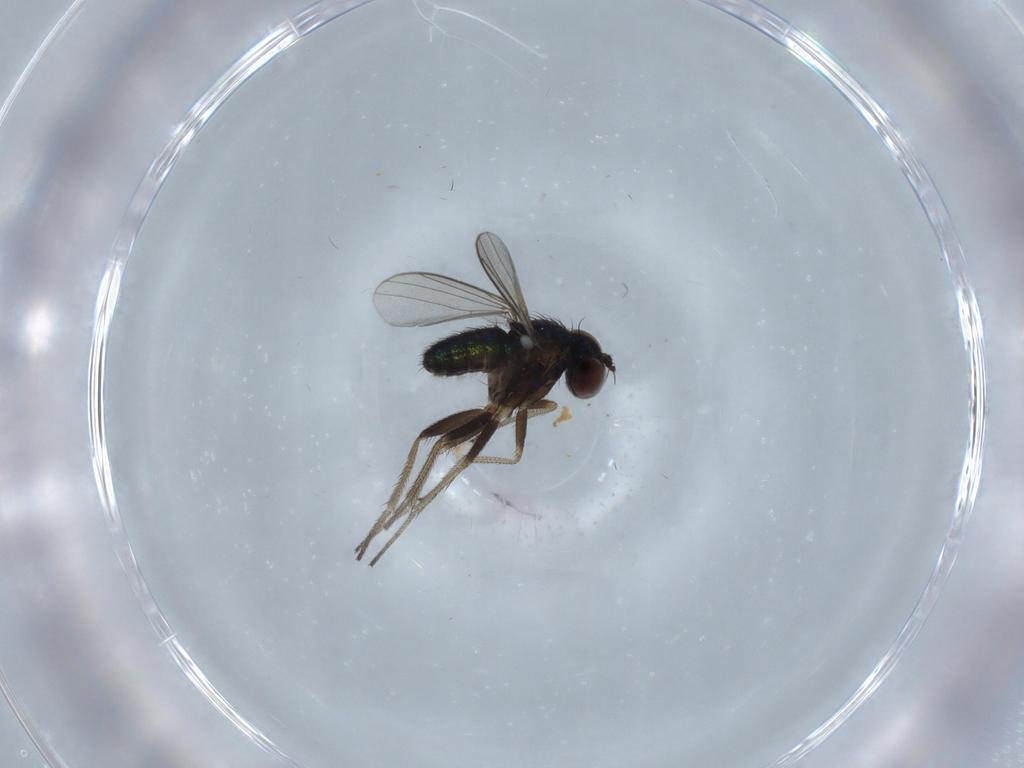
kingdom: Animalia
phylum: Arthropoda
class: Insecta
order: Diptera
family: Dolichopodidae
